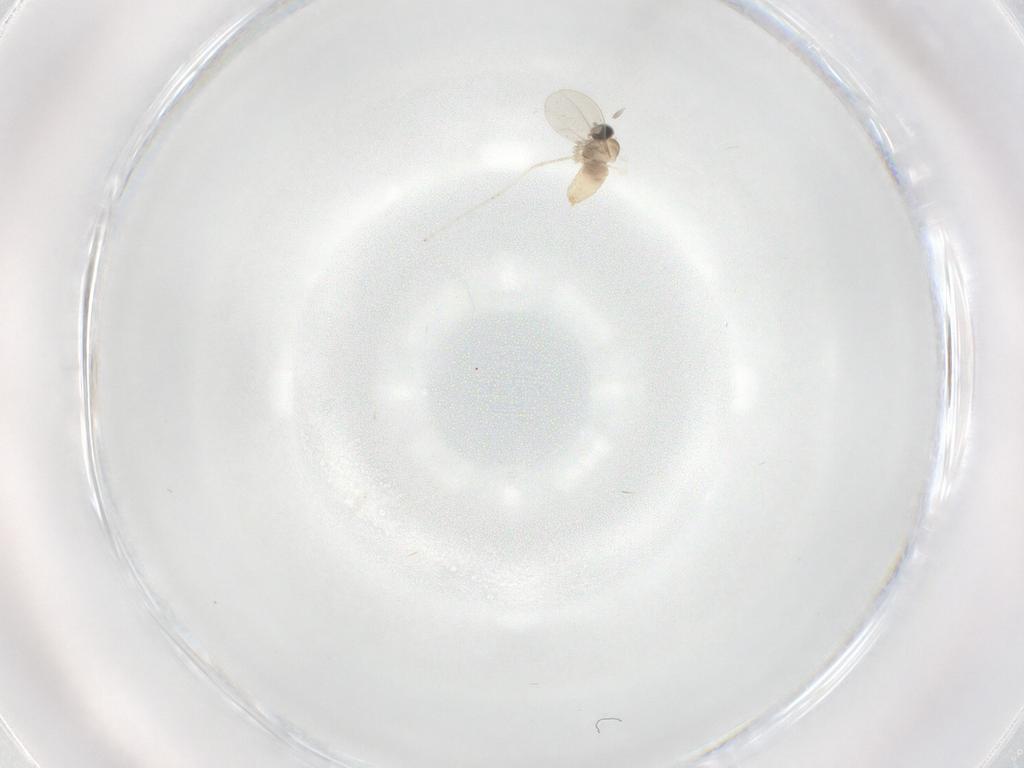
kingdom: Animalia
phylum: Arthropoda
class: Insecta
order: Diptera
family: Cecidomyiidae
